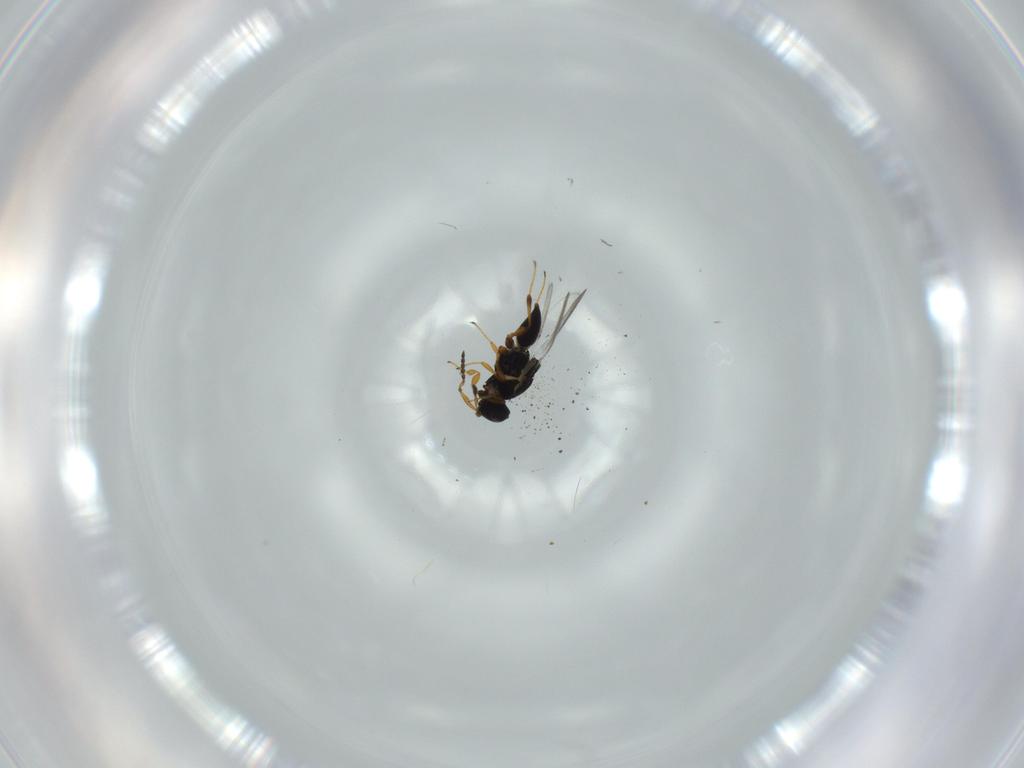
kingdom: Animalia
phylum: Arthropoda
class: Insecta
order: Hymenoptera
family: Platygastridae
